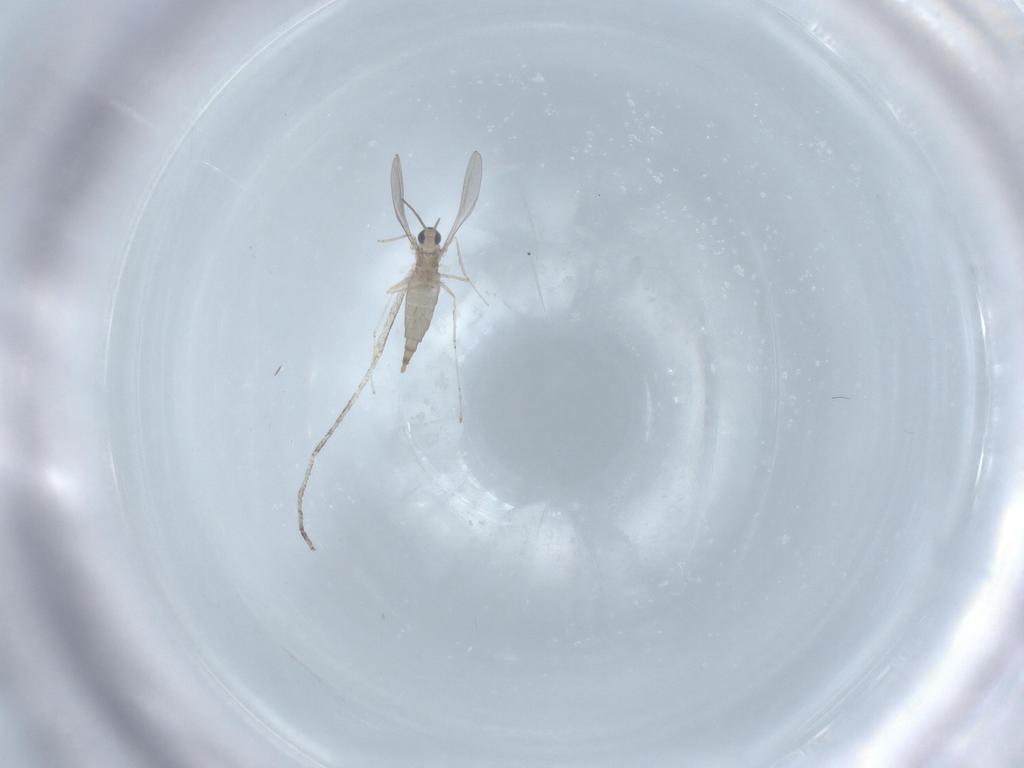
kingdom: Animalia
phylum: Arthropoda
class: Insecta
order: Diptera
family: Cecidomyiidae
